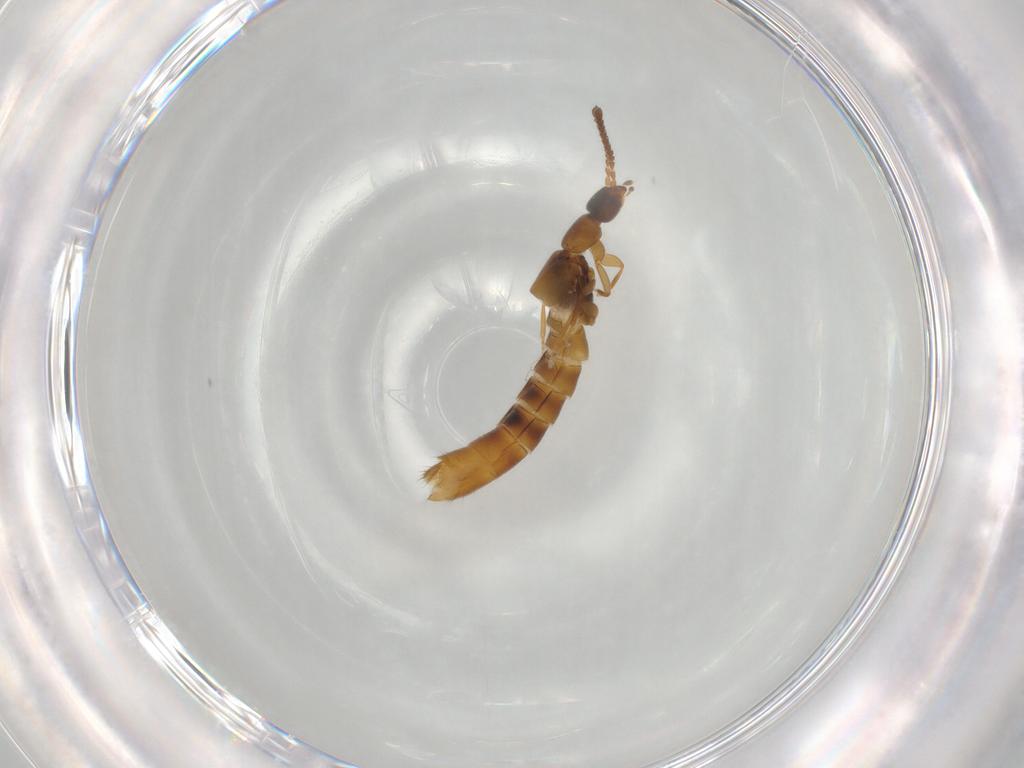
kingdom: Animalia
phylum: Arthropoda
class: Insecta
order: Coleoptera
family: Staphylinidae
